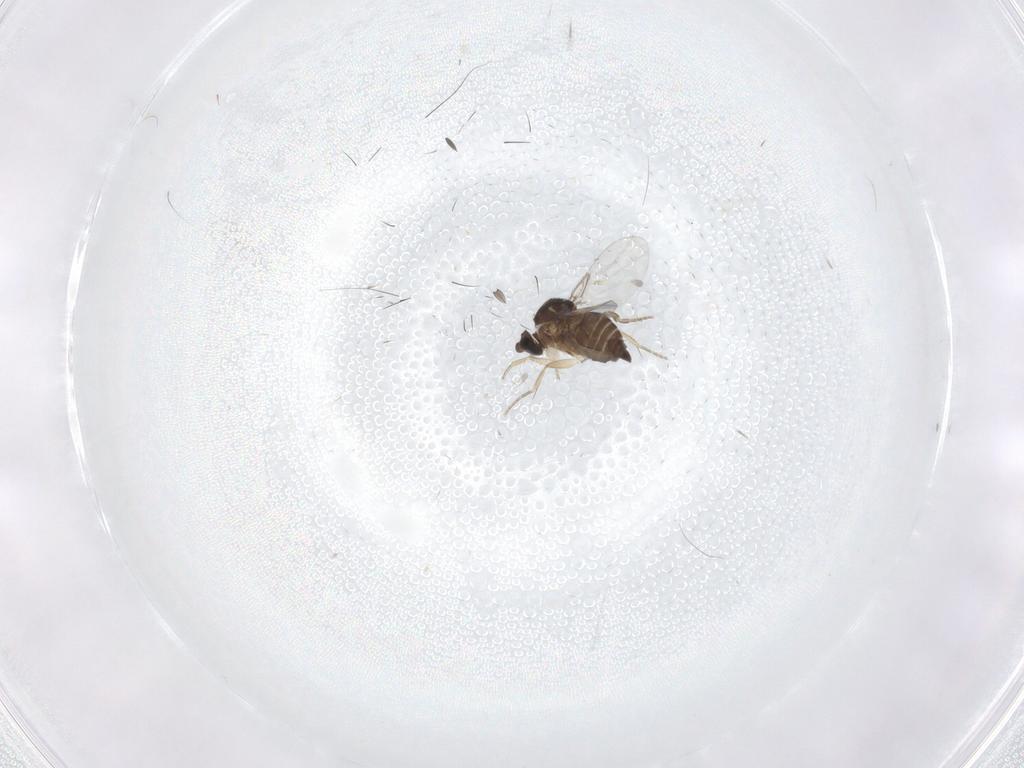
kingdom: Animalia
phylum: Arthropoda
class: Insecta
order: Diptera
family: Phoridae
